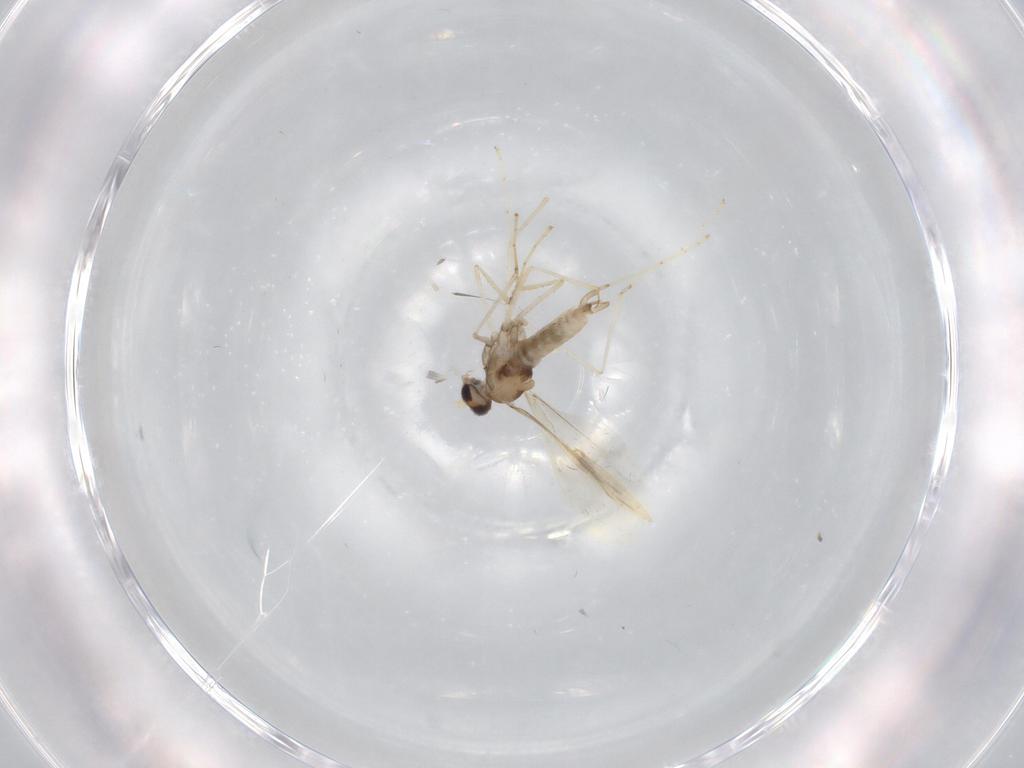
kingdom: Animalia
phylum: Arthropoda
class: Insecta
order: Diptera
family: Cecidomyiidae
